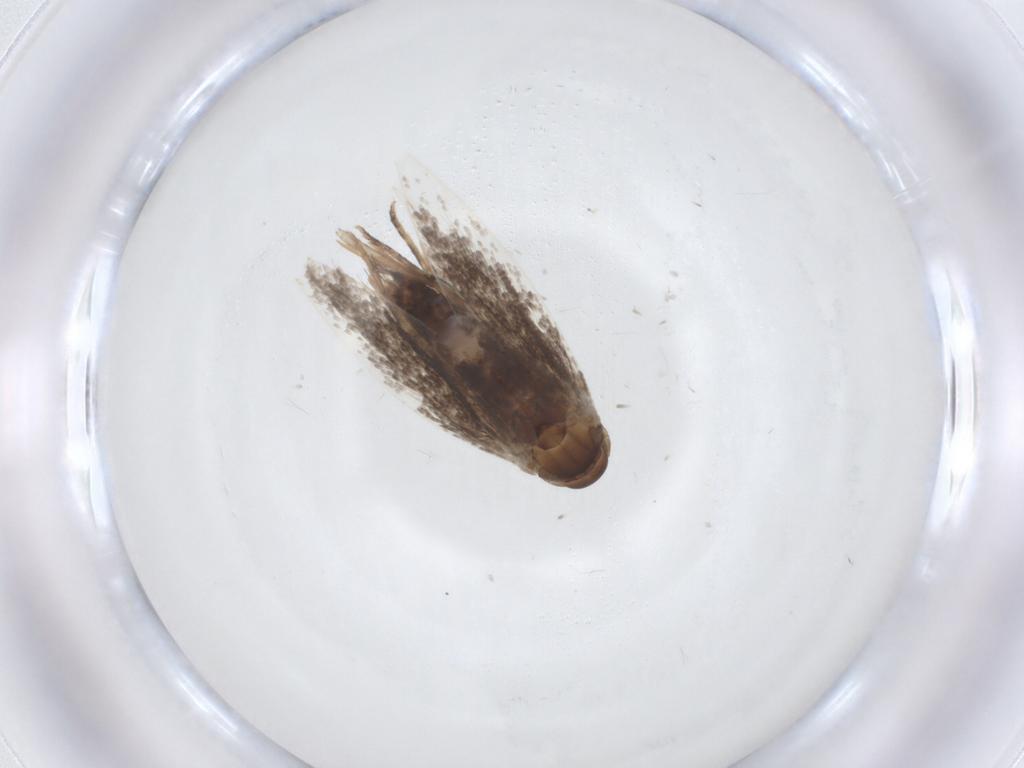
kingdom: Animalia
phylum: Arthropoda
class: Insecta
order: Lepidoptera
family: Elachistidae
